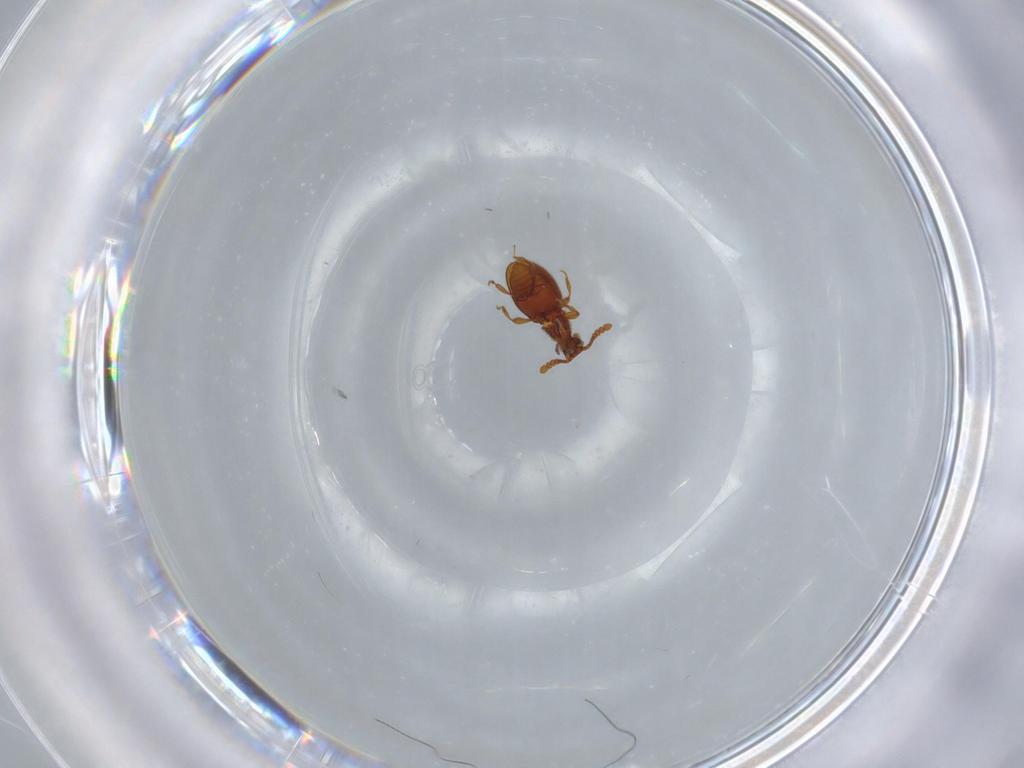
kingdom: Animalia
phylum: Arthropoda
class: Insecta
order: Coleoptera
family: Staphylinidae
